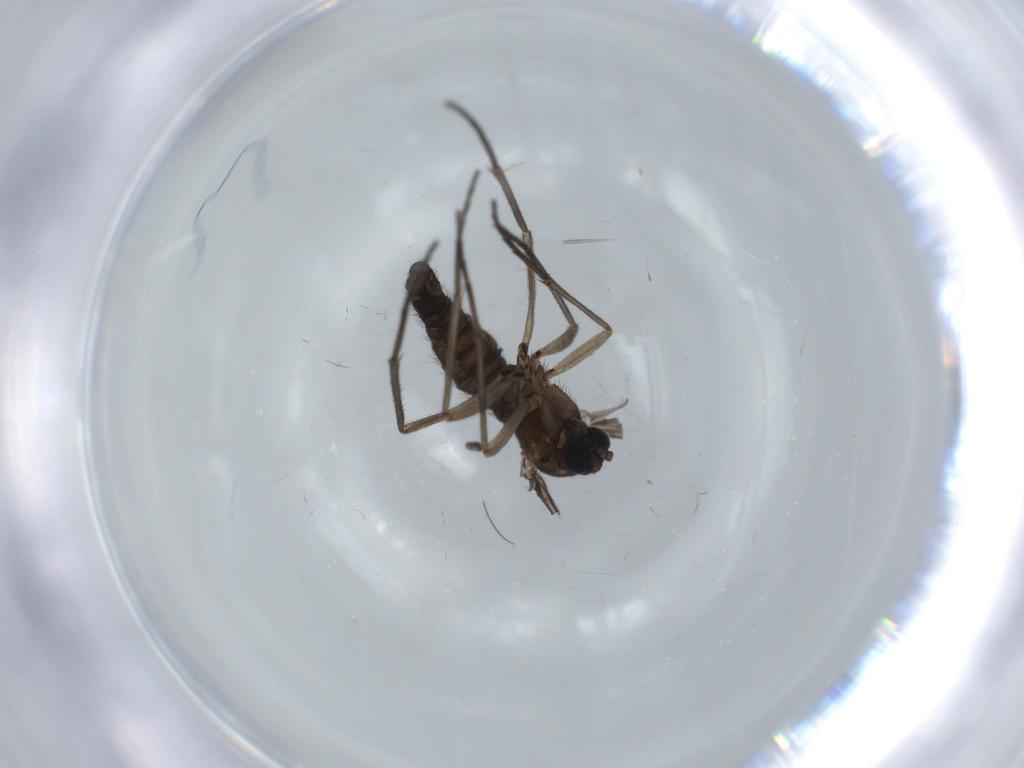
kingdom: Animalia
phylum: Arthropoda
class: Insecta
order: Diptera
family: Sciaridae
